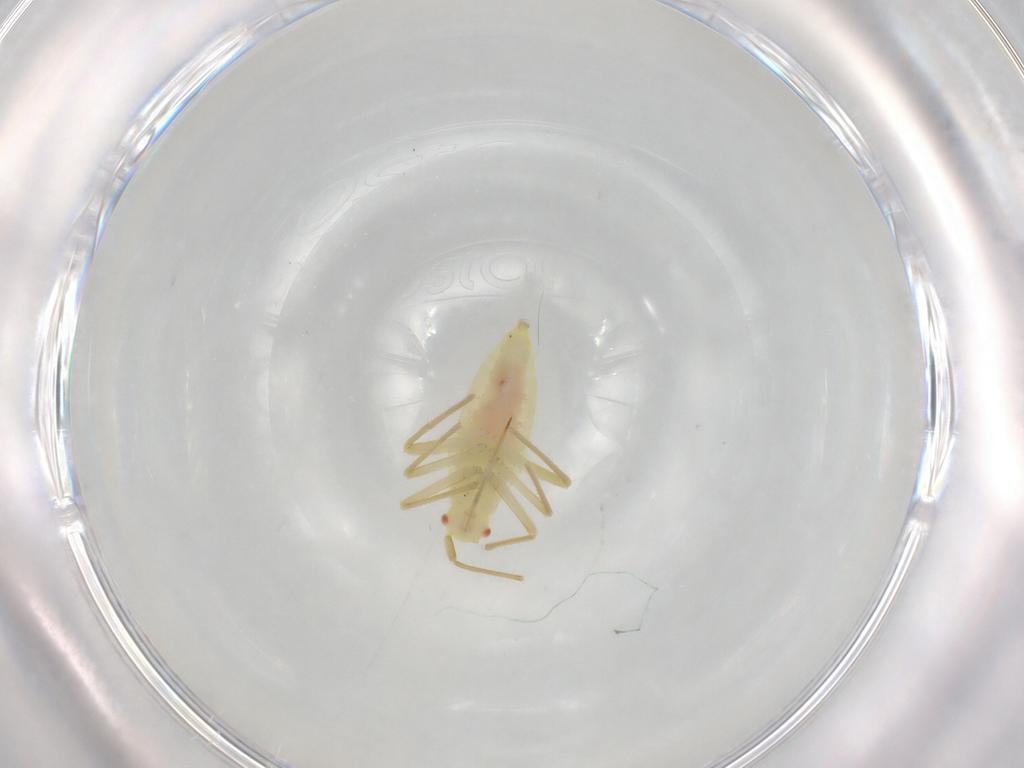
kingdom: Animalia
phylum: Arthropoda
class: Insecta
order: Hemiptera
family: Miridae
